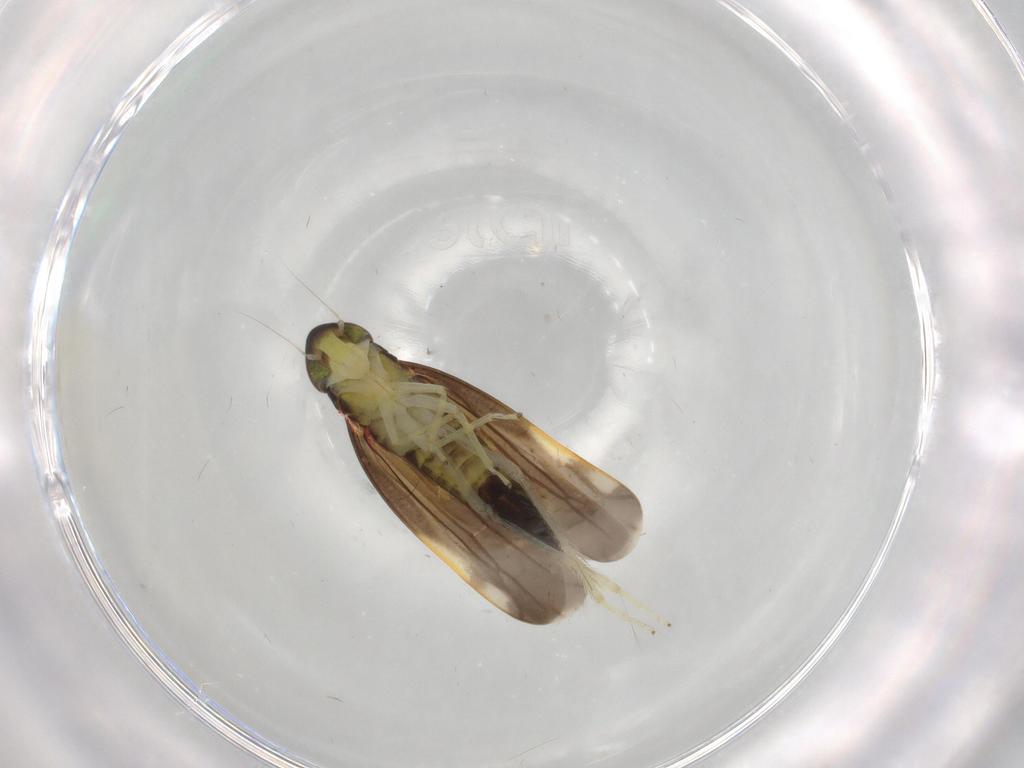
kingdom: Animalia
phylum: Arthropoda
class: Insecta
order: Hemiptera
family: Cicadellidae
